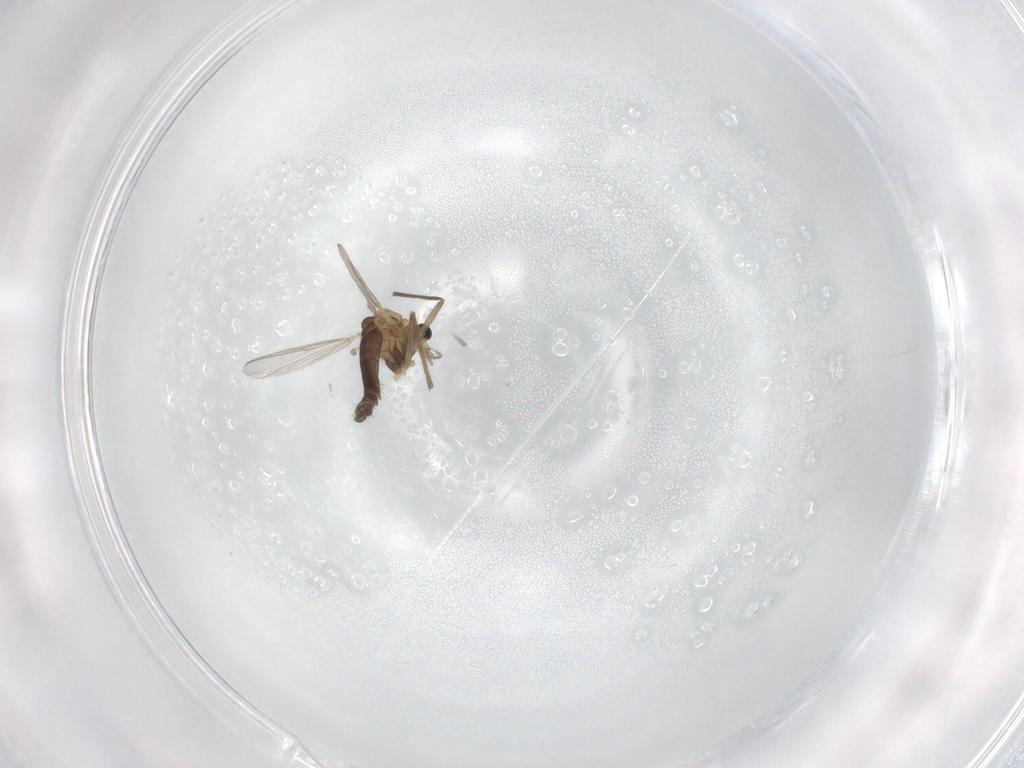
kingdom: Animalia
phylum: Arthropoda
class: Insecta
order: Diptera
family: Chironomidae
